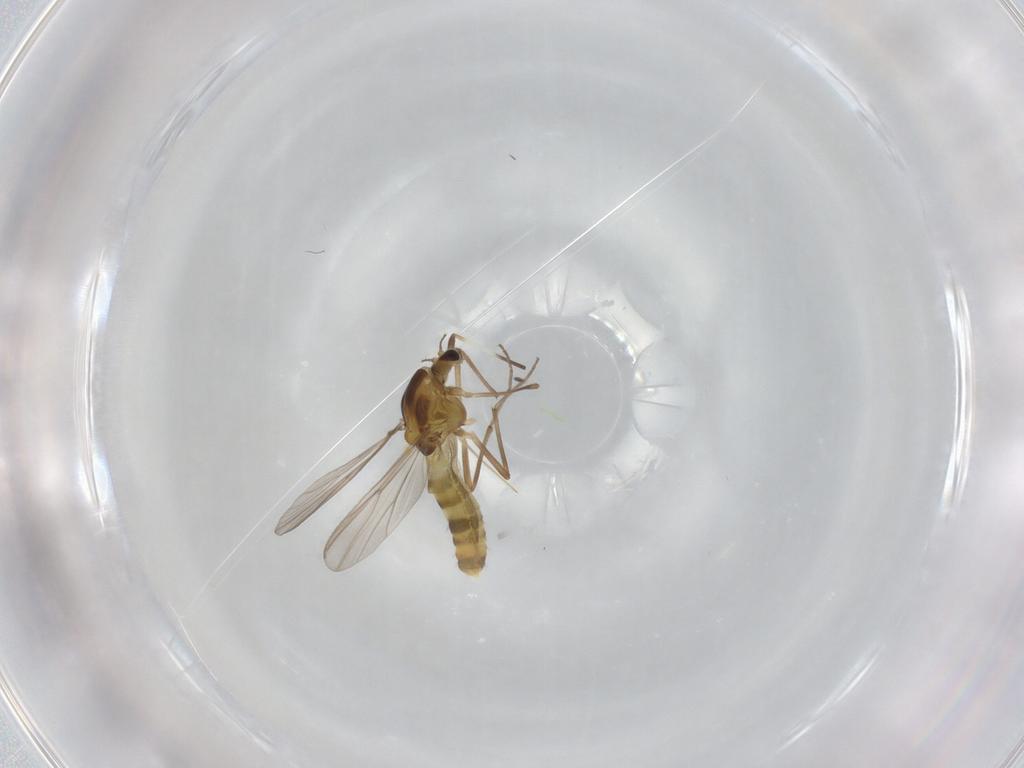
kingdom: Animalia
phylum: Arthropoda
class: Insecta
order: Diptera
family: Chironomidae
